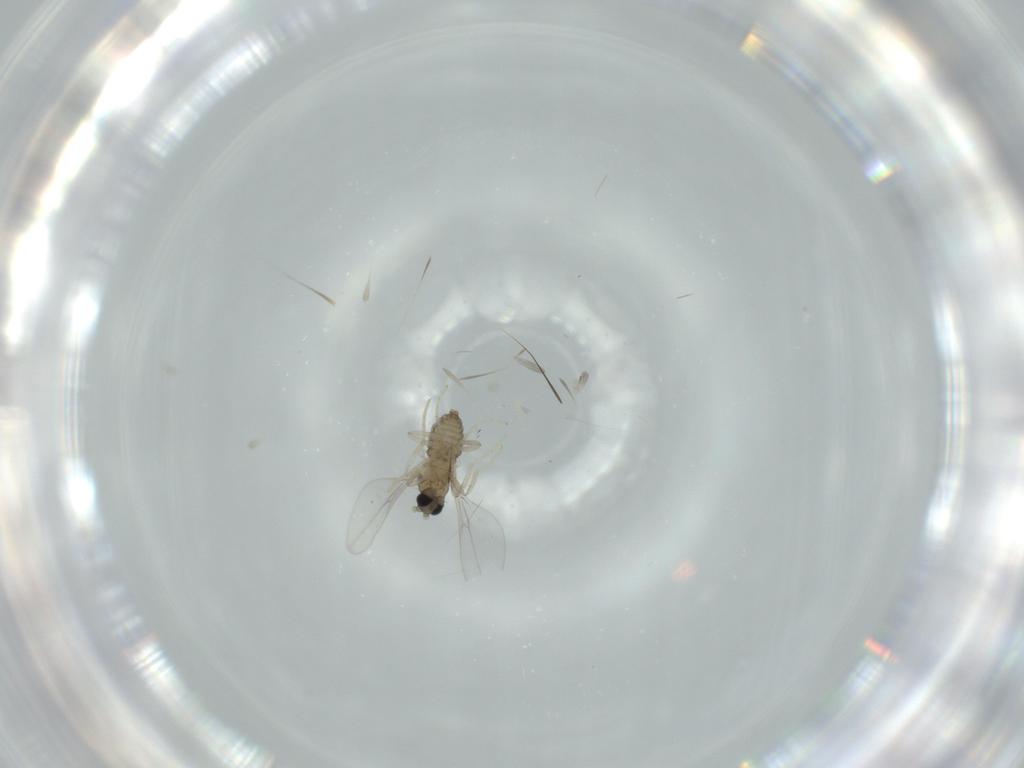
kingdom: Animalia
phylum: Arthropoda
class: Insecta
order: Diptera
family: Cecidomyiidae
